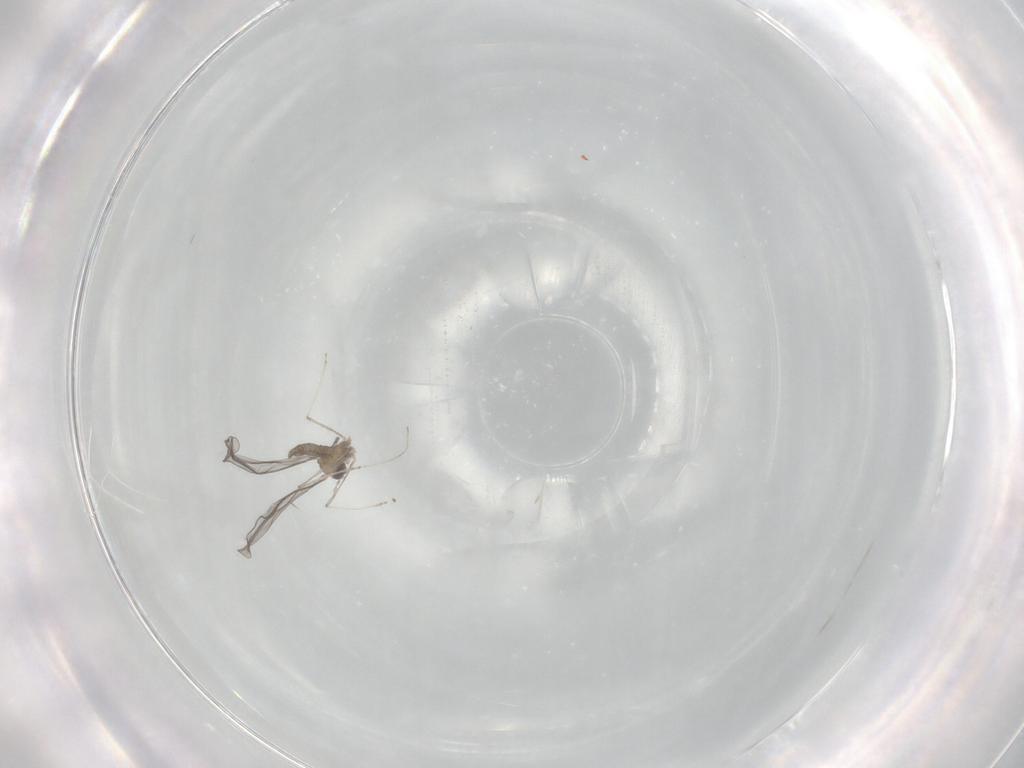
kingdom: Animalia
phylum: Arthropoda
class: Insecta
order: Diptera
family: Cecidomyiidae
